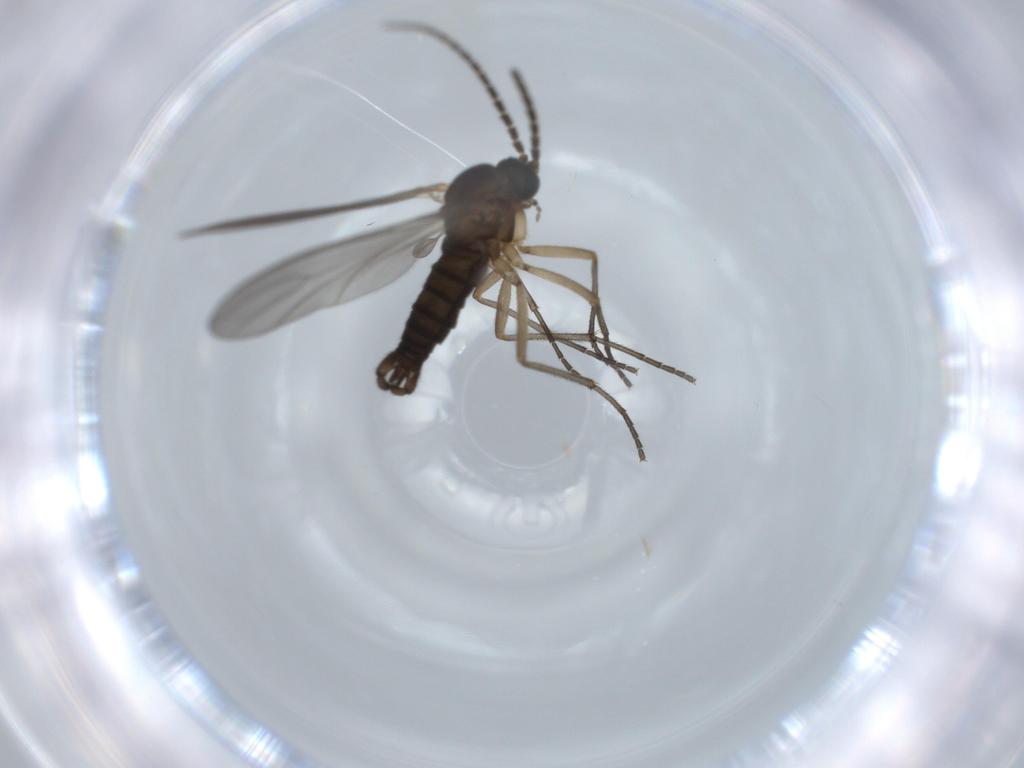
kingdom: Animalia
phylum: Arthropoda
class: Insecta
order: Diptera
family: Sciaridae
